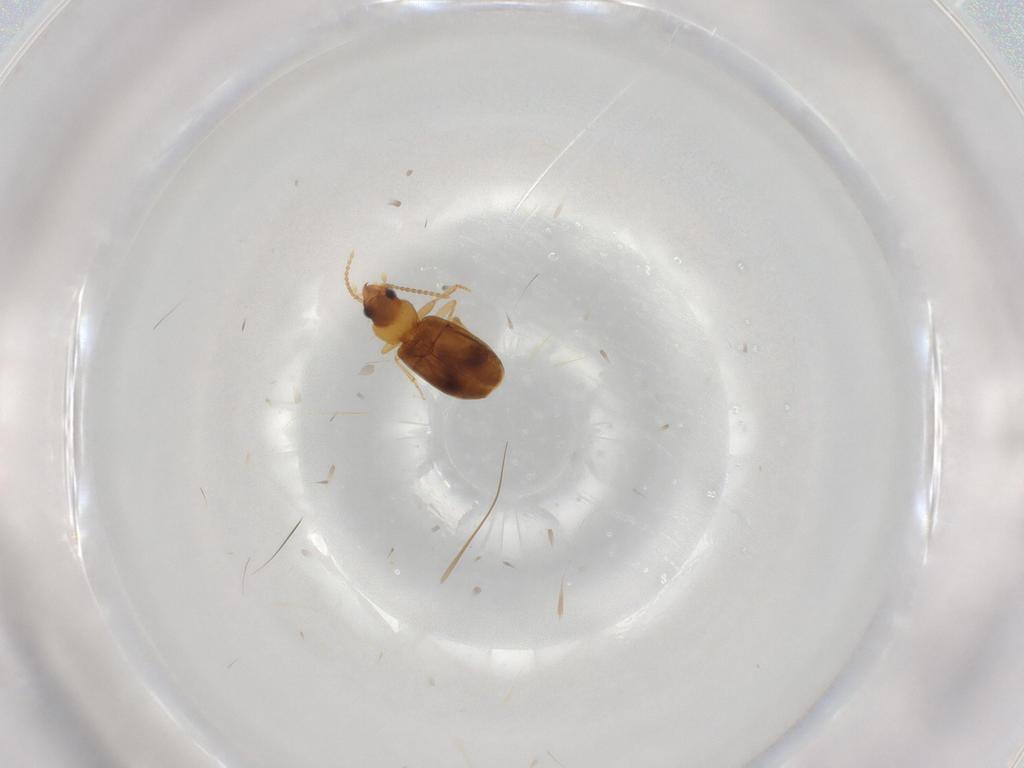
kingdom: Animalia
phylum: Arthropoda
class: Insecta
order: Coleoptera
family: Carabidae
